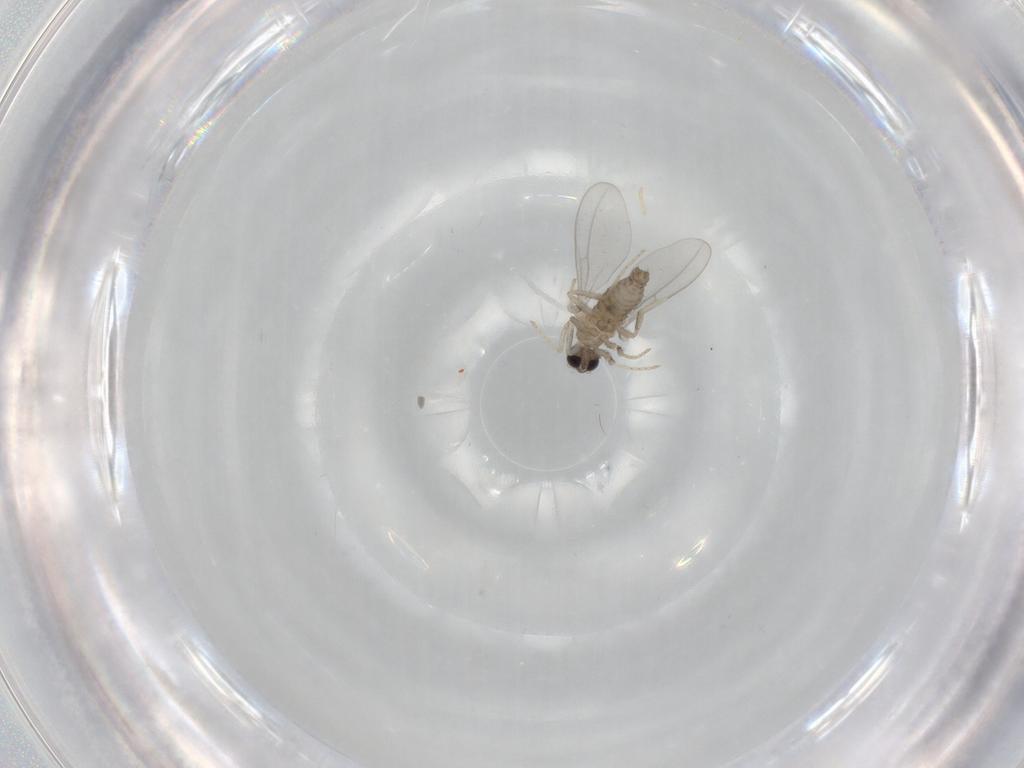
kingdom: Animalia
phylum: Arthropoda
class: Insecta
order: Diptera
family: Cecidomyiidae
